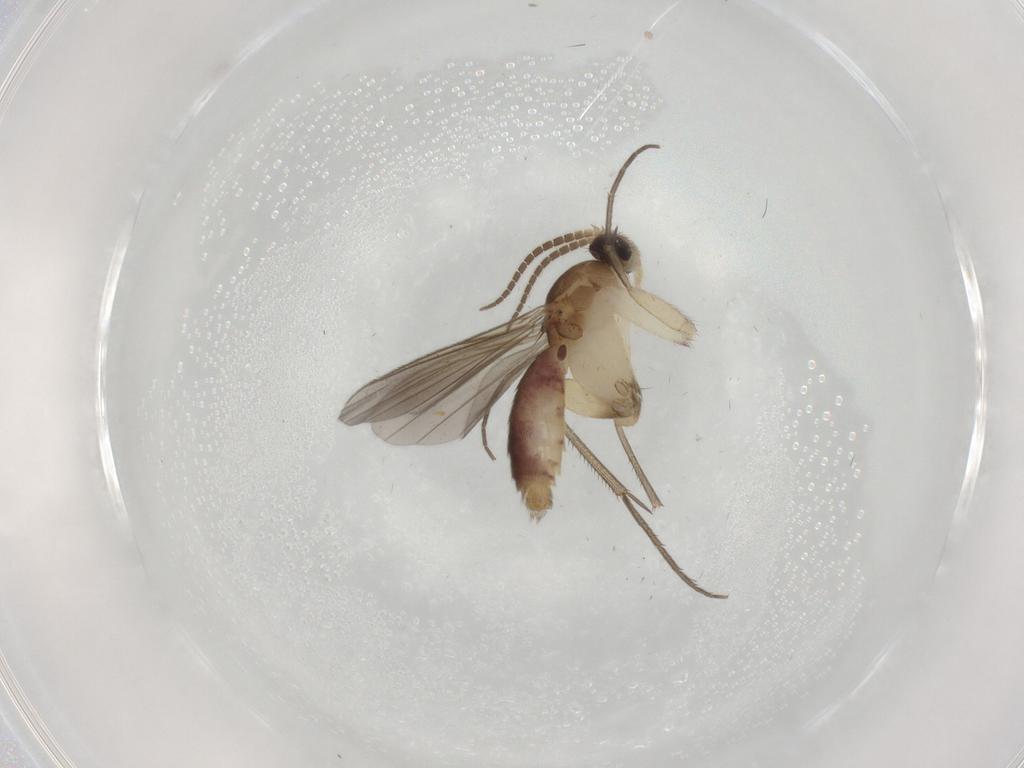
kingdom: Animalia
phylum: Arthropoda
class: Insecta
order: Diptera
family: Mycetophilidae
